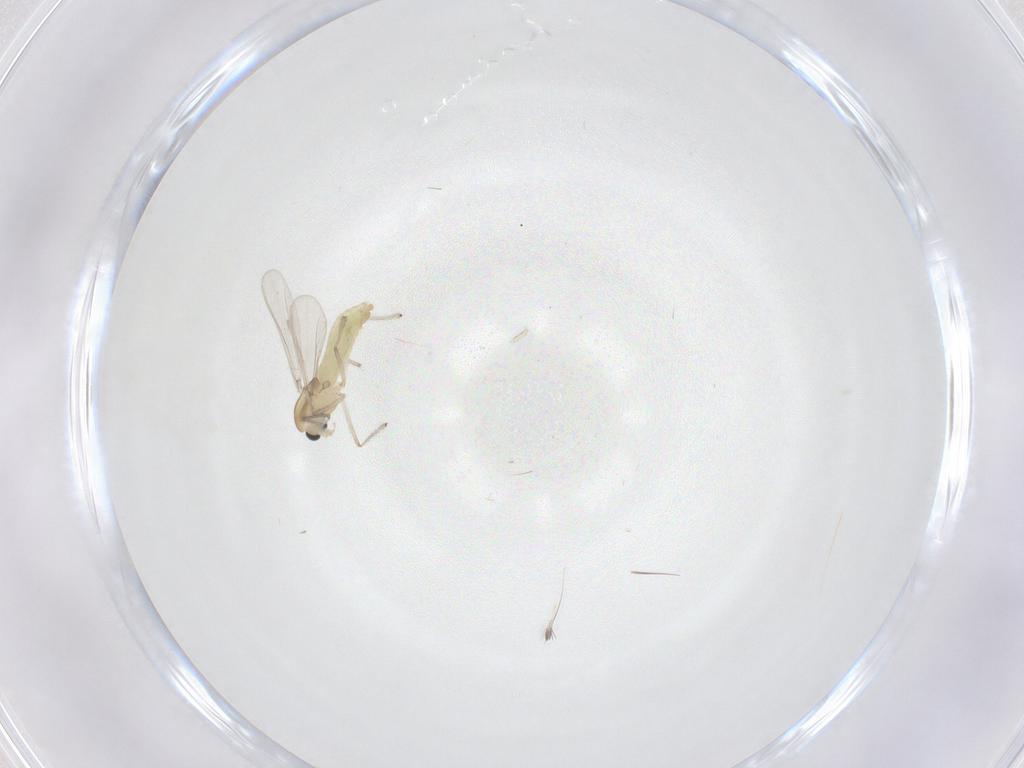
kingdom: Animalia
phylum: Arthropoda
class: Insecta
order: Diptera
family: Chironomidae
